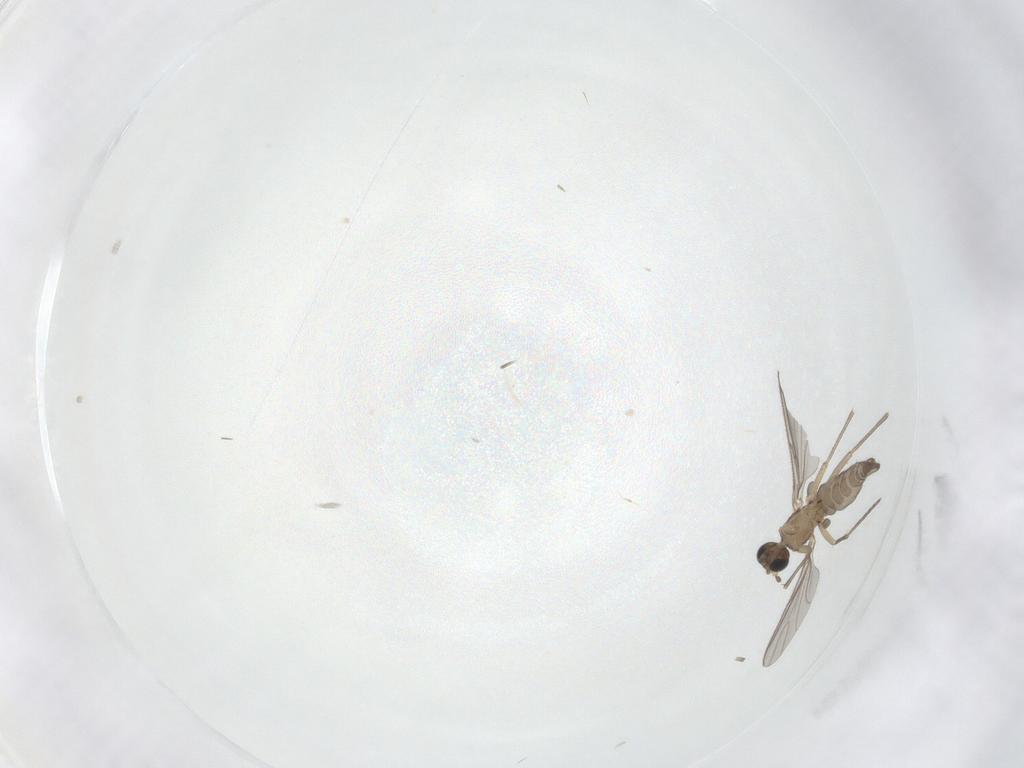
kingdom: Animalia
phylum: Arthropoda
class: Insecta
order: Diptera
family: Sciaridae
